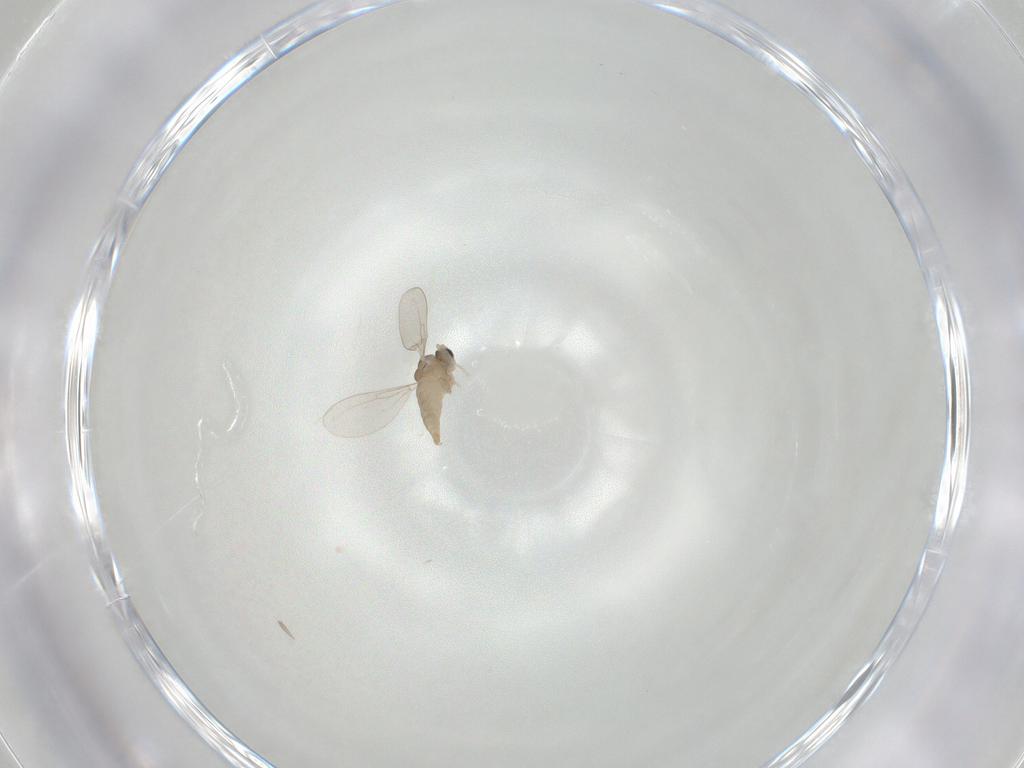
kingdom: Animalia
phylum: Arthropoda
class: Insecta
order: Diptera
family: Cecidomyiidae
